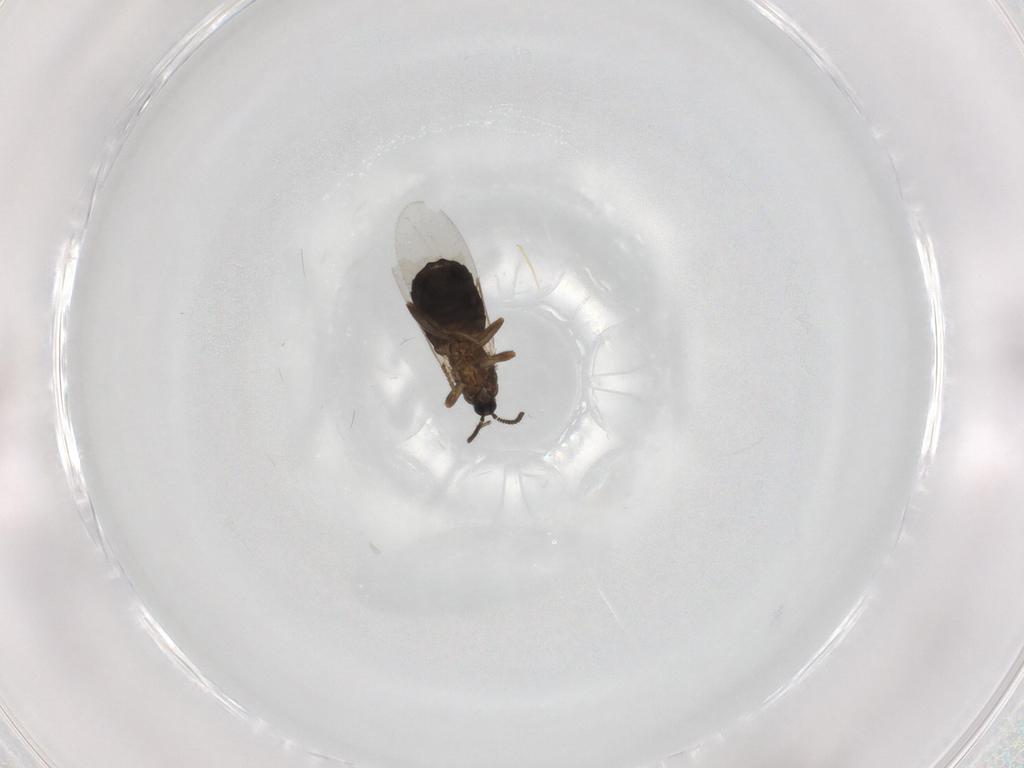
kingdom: Animalia
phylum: Arthropoda
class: Insecta
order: Diptera
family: Scatopsidae
